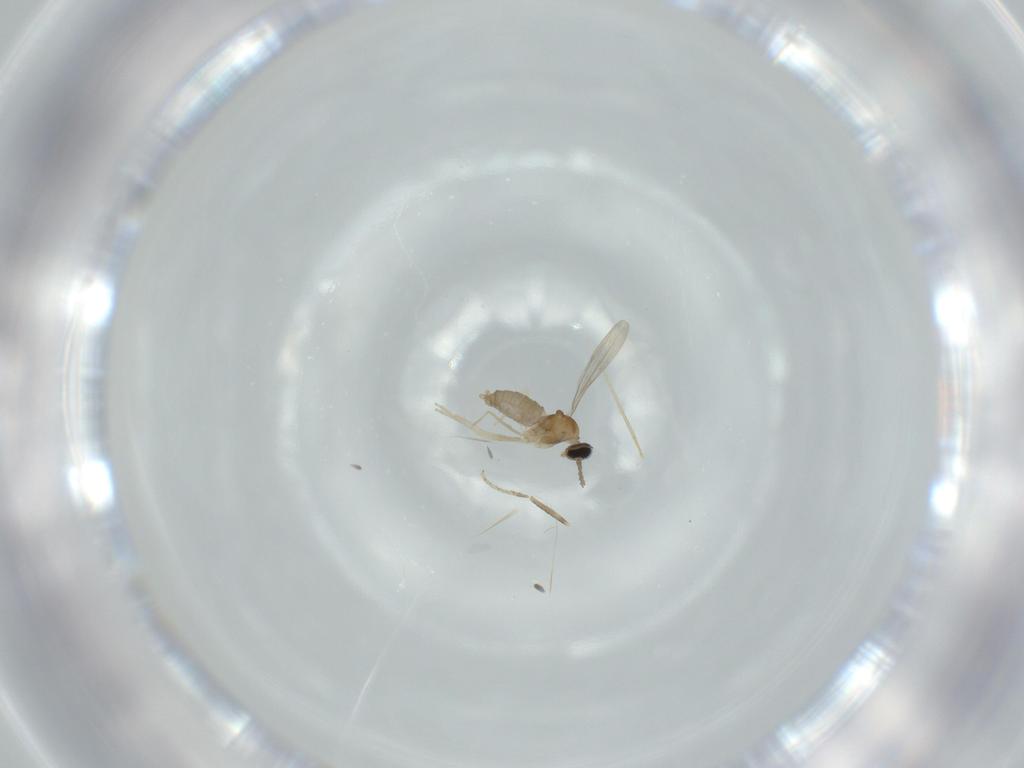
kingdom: Animalia
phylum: Arthropoda
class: Insecta
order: Diptera
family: Cecidomyiidae
